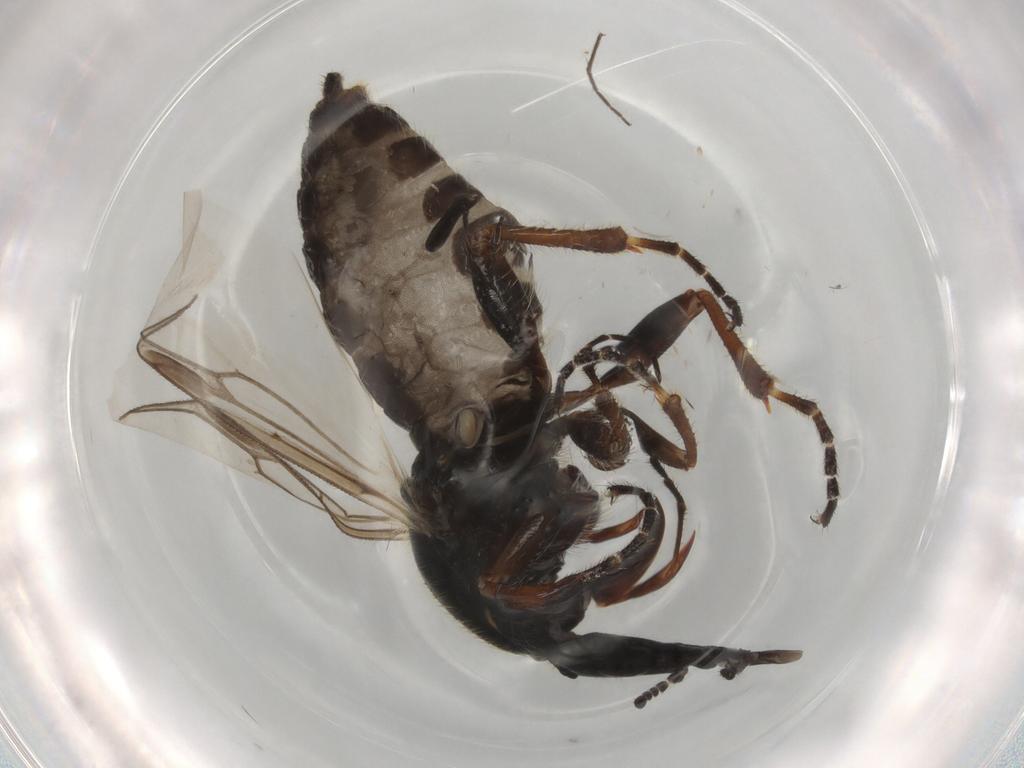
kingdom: Animalia
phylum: Arthropoda
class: Insecta
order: Diptera
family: Bibionidae
